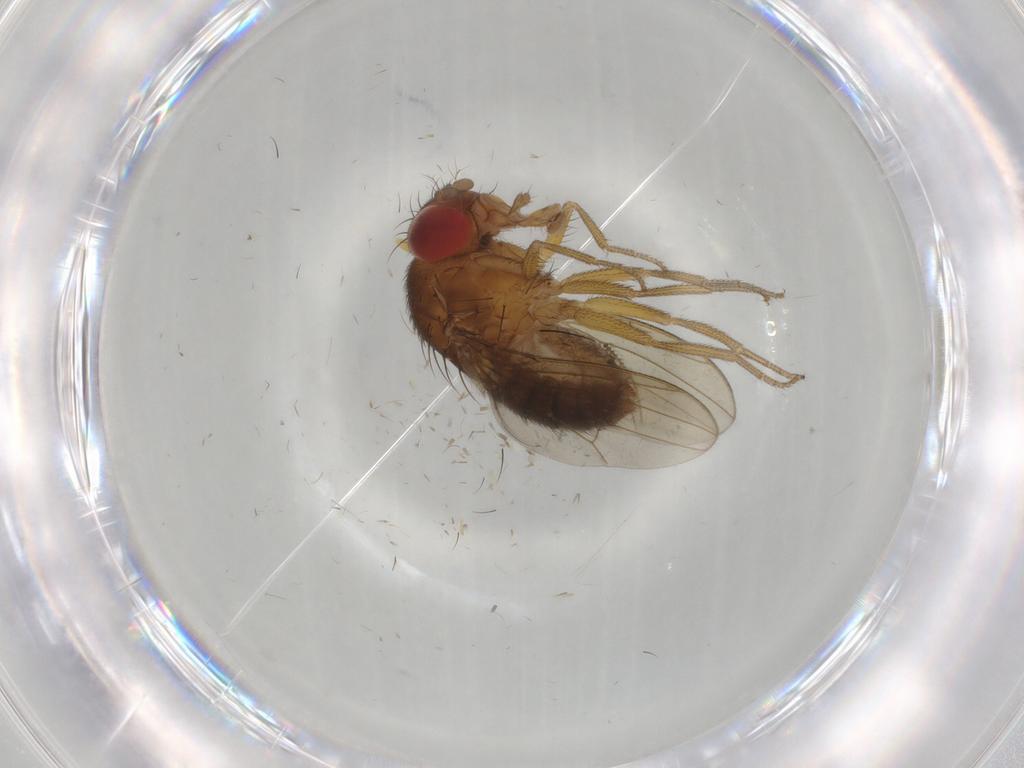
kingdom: Animalia
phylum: Arthropoda
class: Insecta
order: Diptera
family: Drosophilidae
